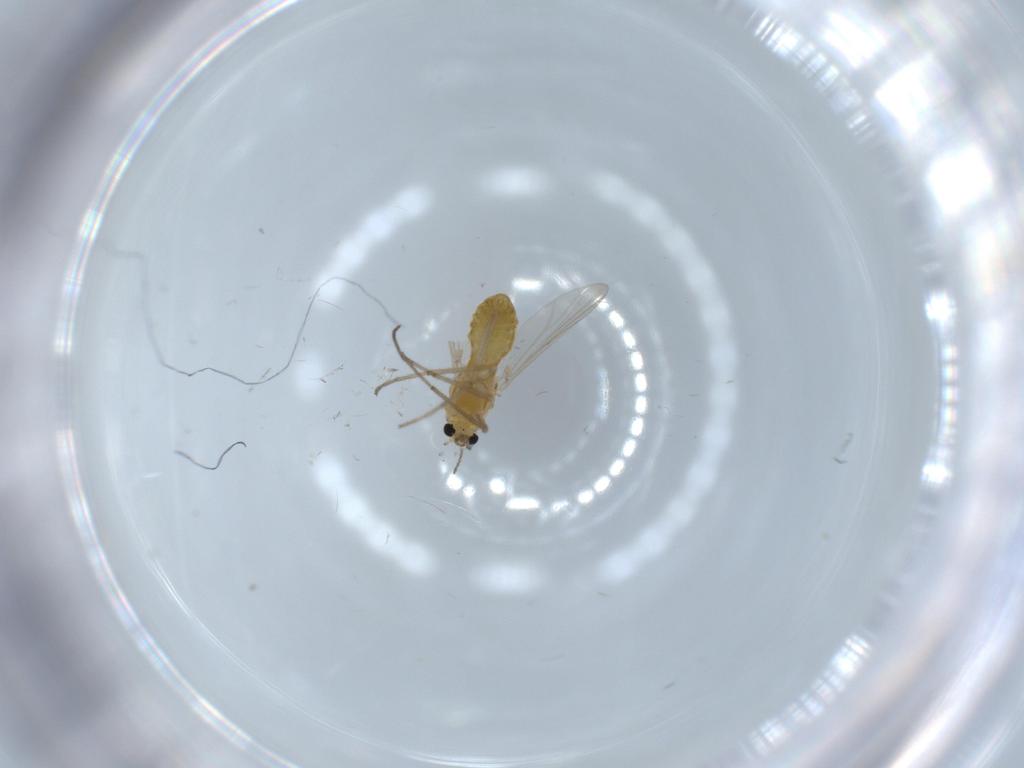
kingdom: Animalia
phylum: Arthropoda
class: Insecta
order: Diptera
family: Chironomidae
